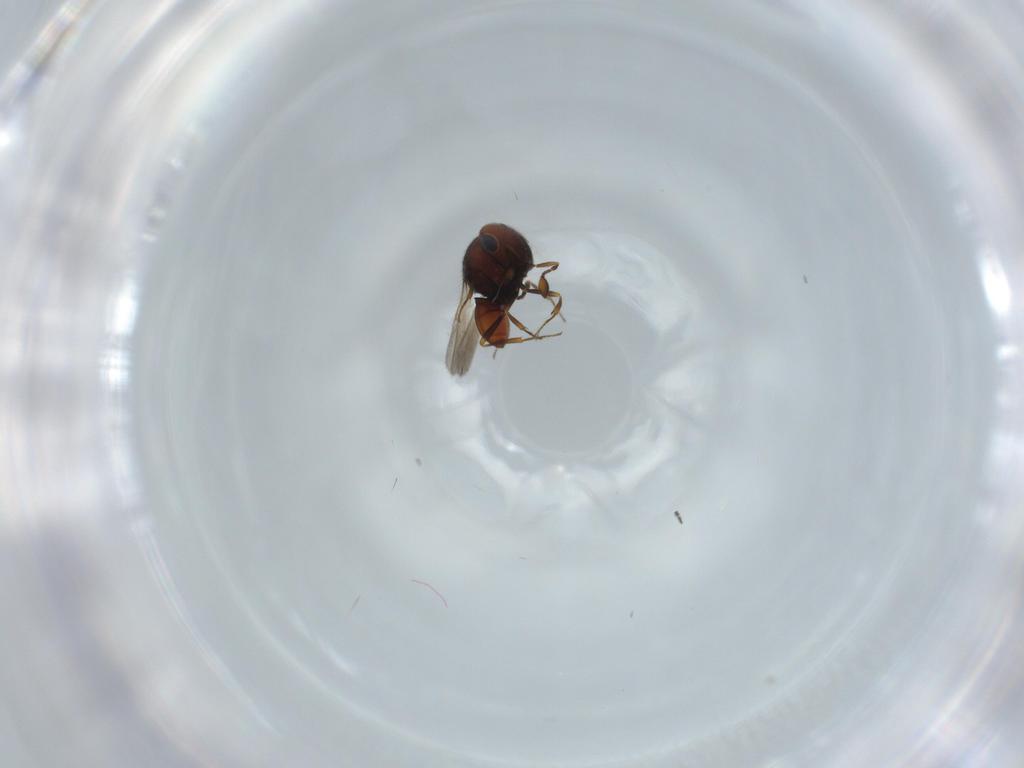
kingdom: Animalia
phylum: Arthropoda
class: Insecta
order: Hymenoptera
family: Scelionidae
